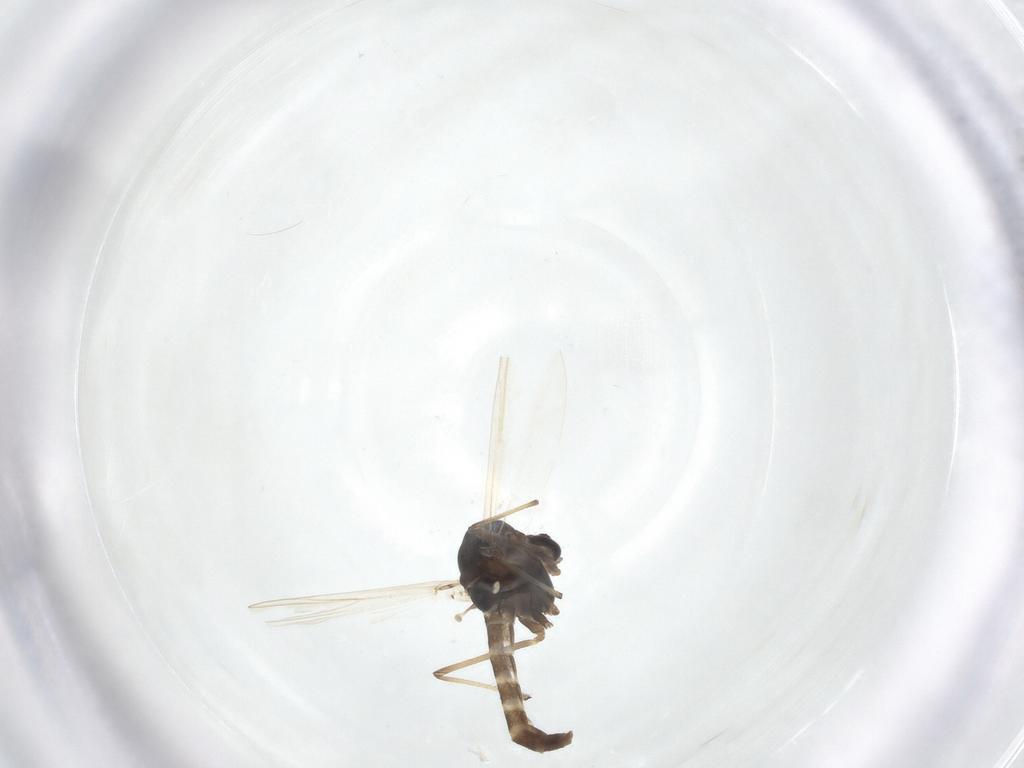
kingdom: Animalia
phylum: Arthropoda
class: Insecta
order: Diptera
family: Chironomidae
